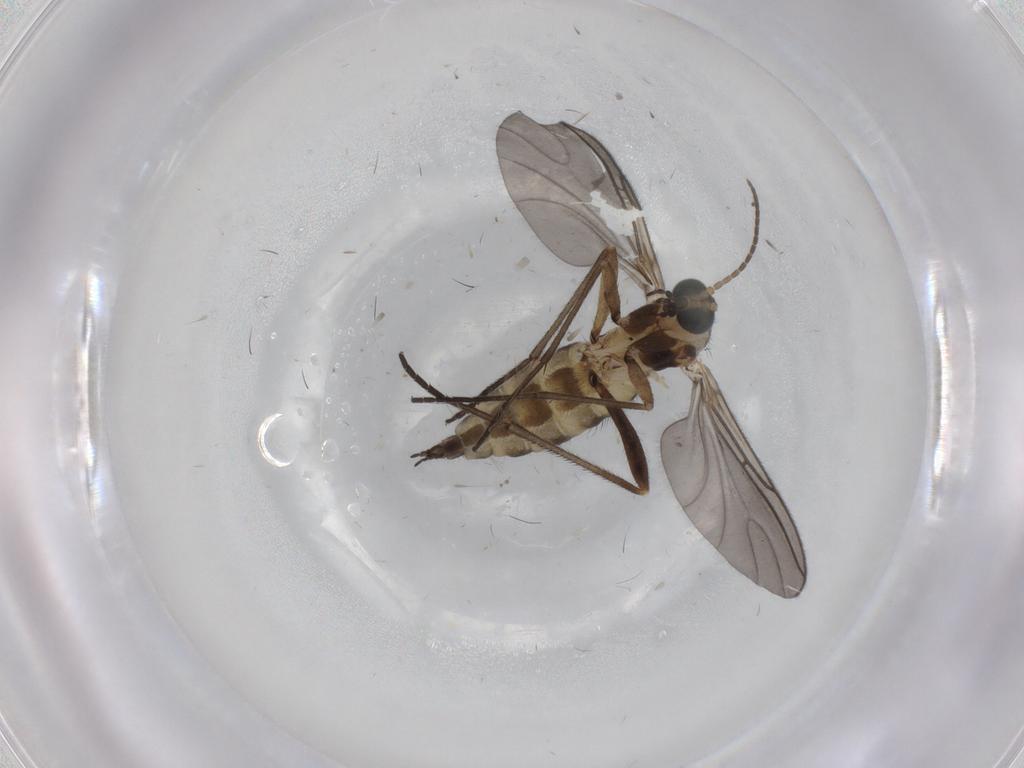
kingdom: Animalia
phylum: Arthropoda
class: Insecta
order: Diptera
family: Sciaridae
